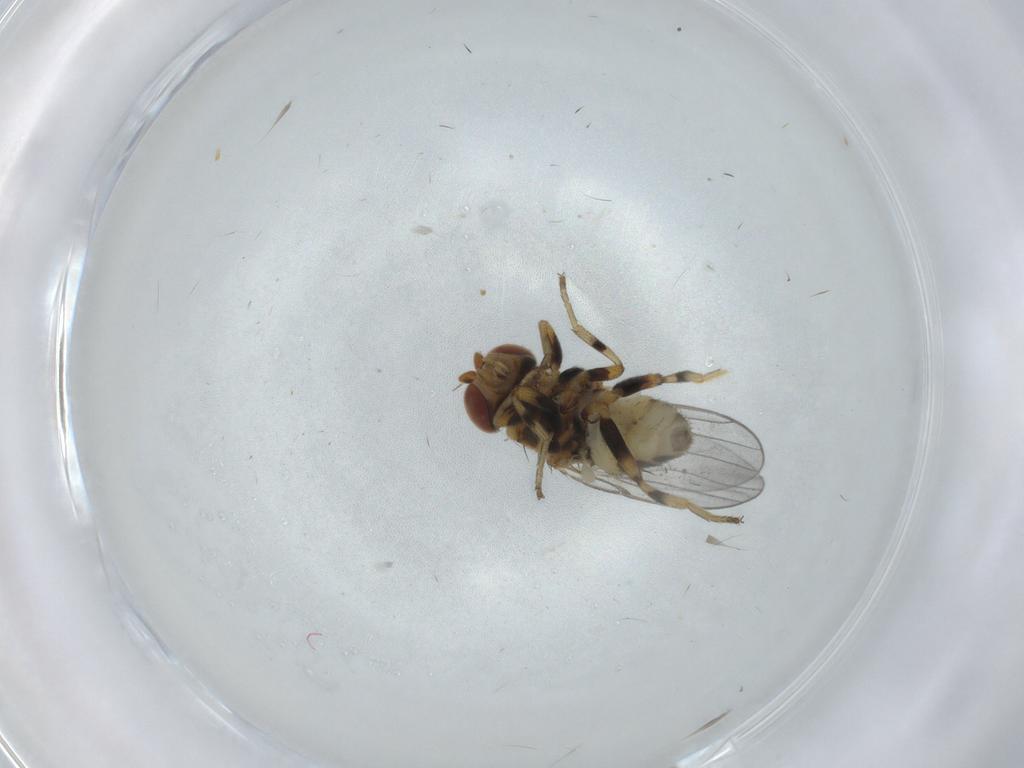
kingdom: Animalia
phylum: Arthropoda
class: Insecta
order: Diptera
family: Chloropidae
